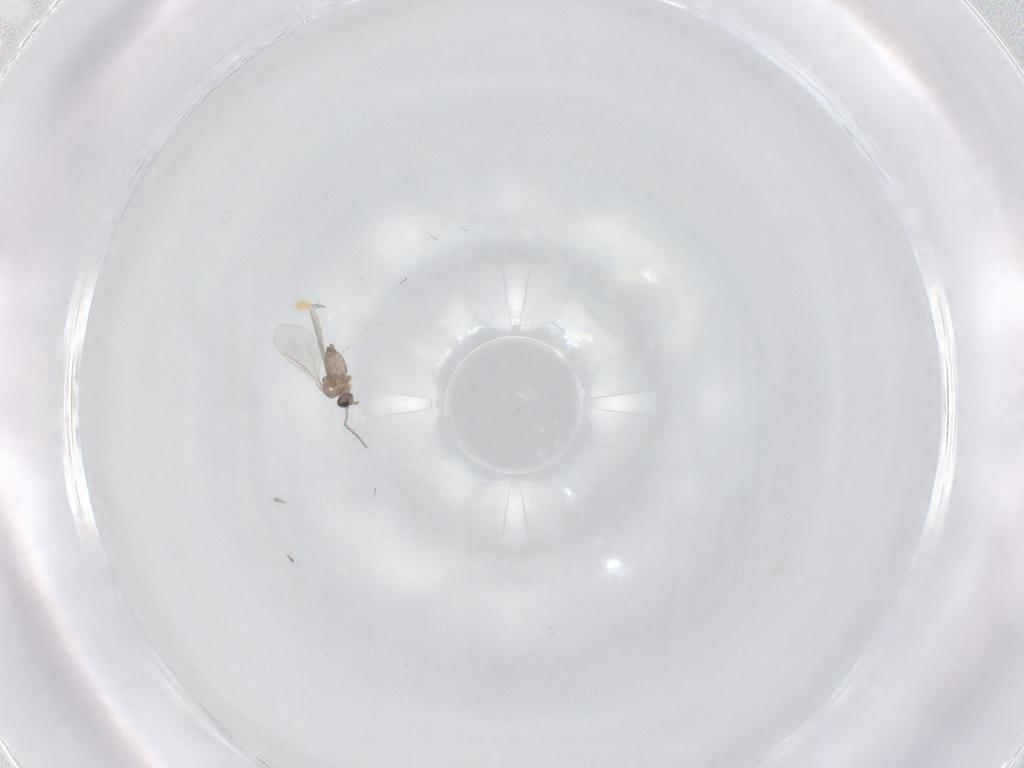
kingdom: Animalia
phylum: Arthropoda
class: Insecta
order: Diptera
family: Cecidomyiidae
